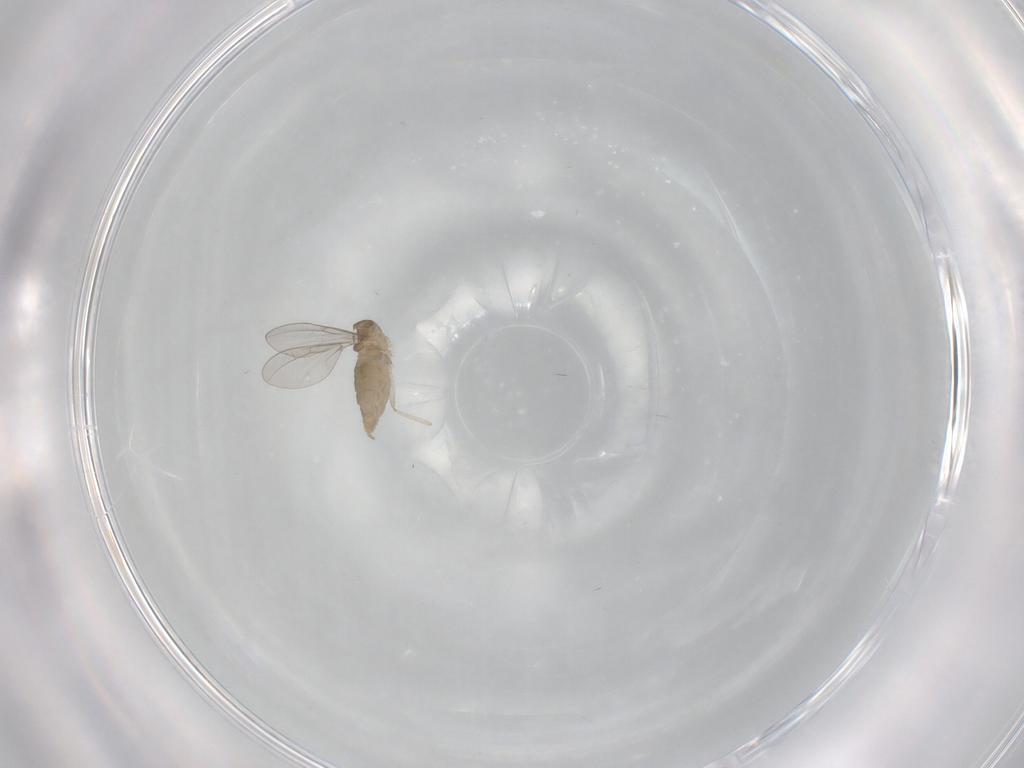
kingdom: Animalia
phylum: Arthropoda
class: Insecta
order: Diptera
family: Cecidomyiidae
